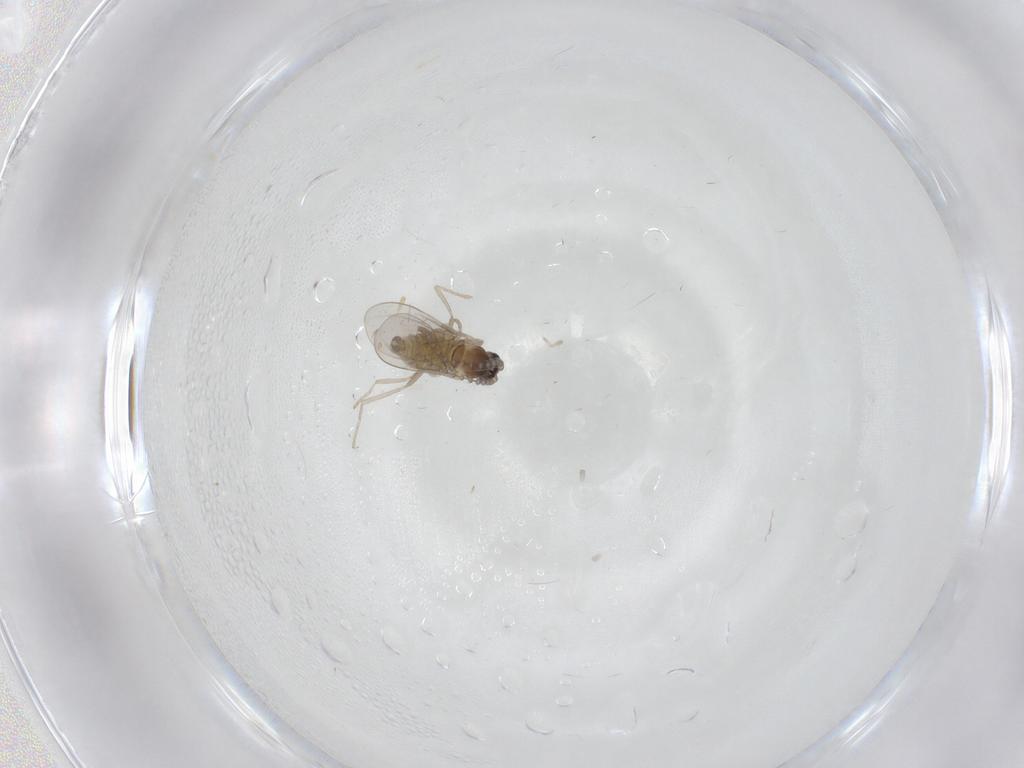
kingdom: Animalia
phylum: Arthropoda
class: Insecta
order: Diptera
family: Cecidomyiidae
